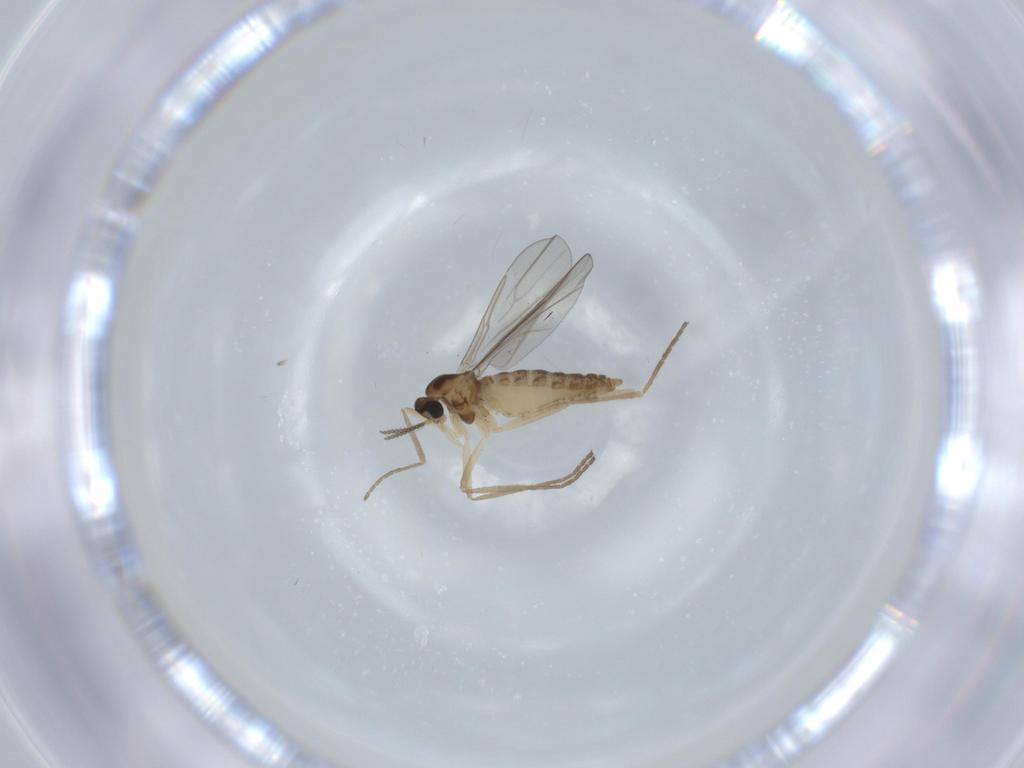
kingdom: Animalia
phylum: Arthropoda
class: Insecta
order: Diptera
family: Cecidomyiidae
